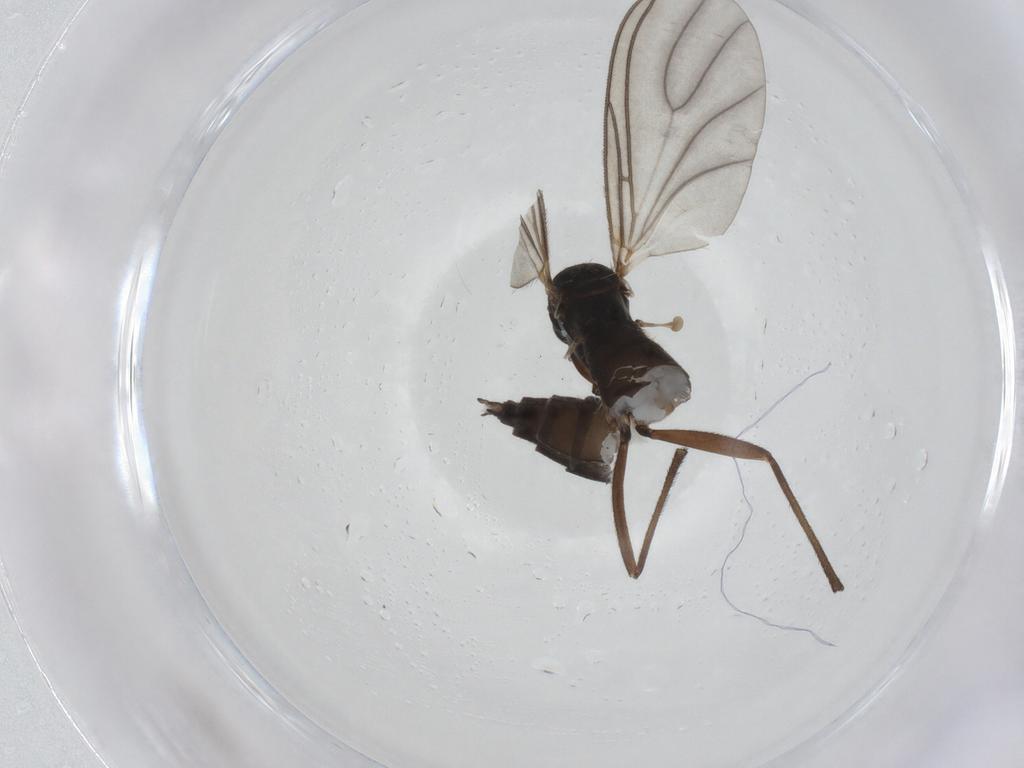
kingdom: Animalia
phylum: Arthropoda
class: Insecta
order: Diptera
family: Sciaridae
